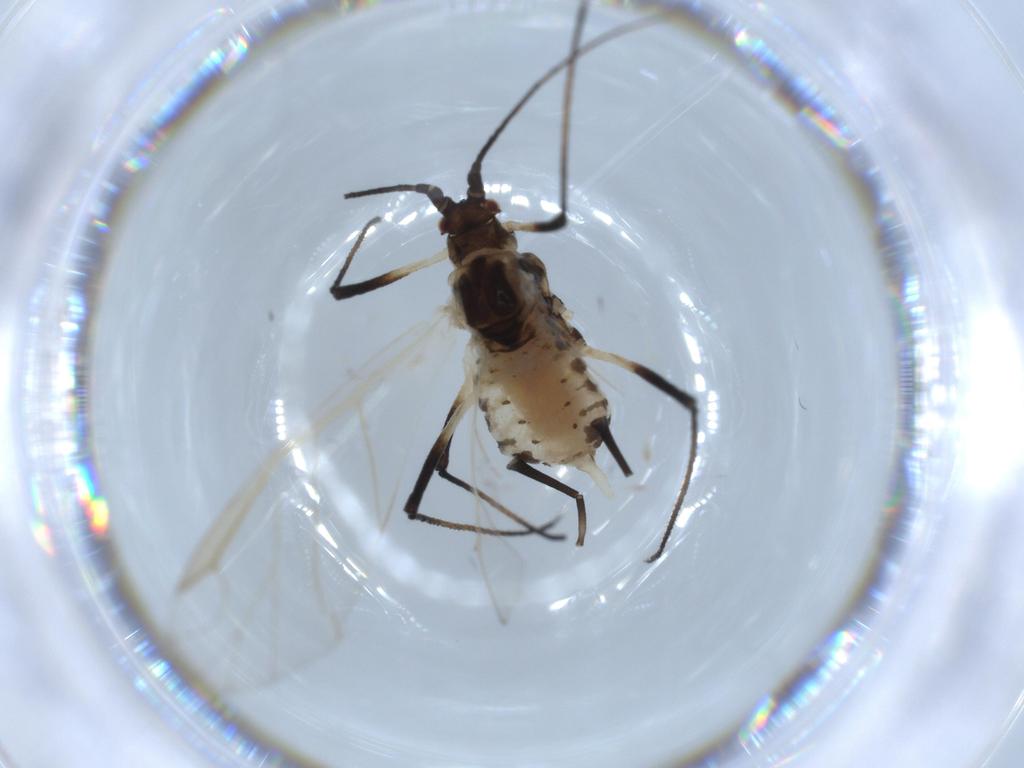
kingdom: Animalia
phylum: Arthropoda
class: Insecta
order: Hemiptera
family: Aphididae
